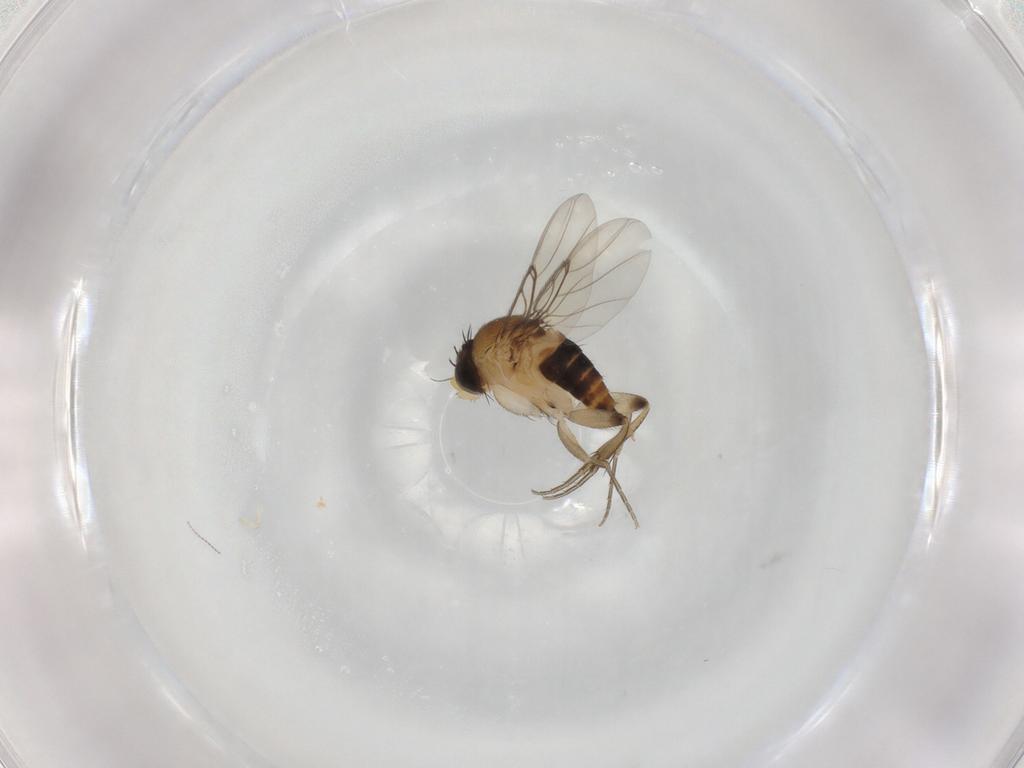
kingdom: Animalia
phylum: Arthropoda
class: Insecta
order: Diptera
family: Phoridae
